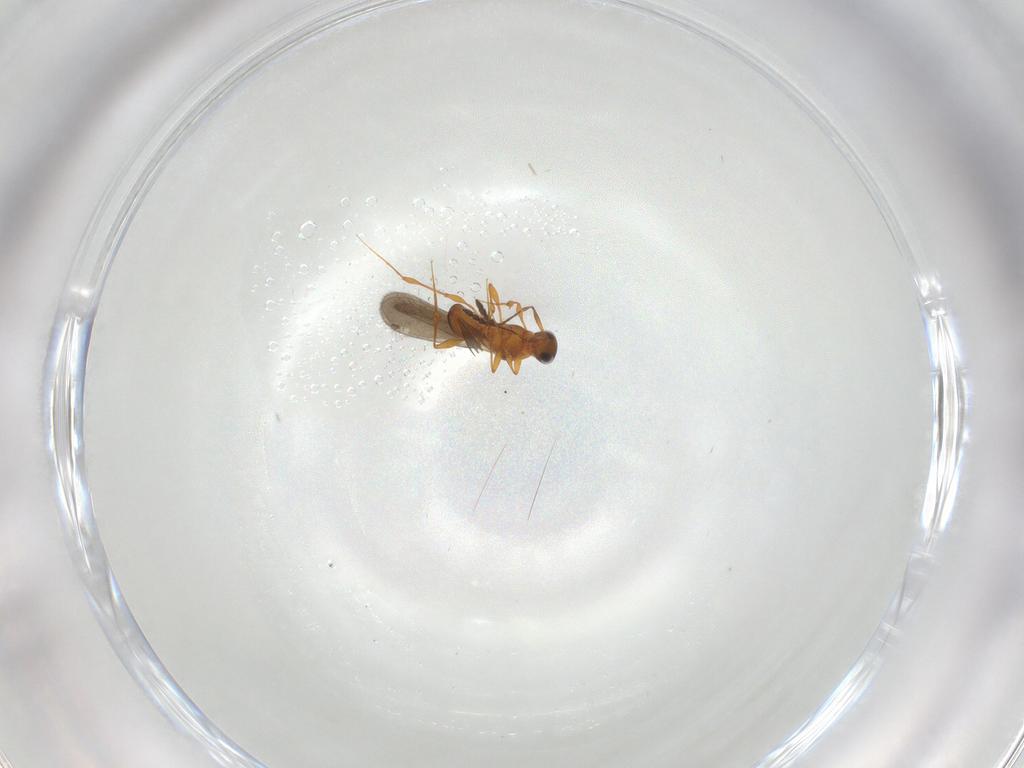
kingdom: Animalia
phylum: Arthropoda
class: Insecta
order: Hymenoptera
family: Platygastridae
